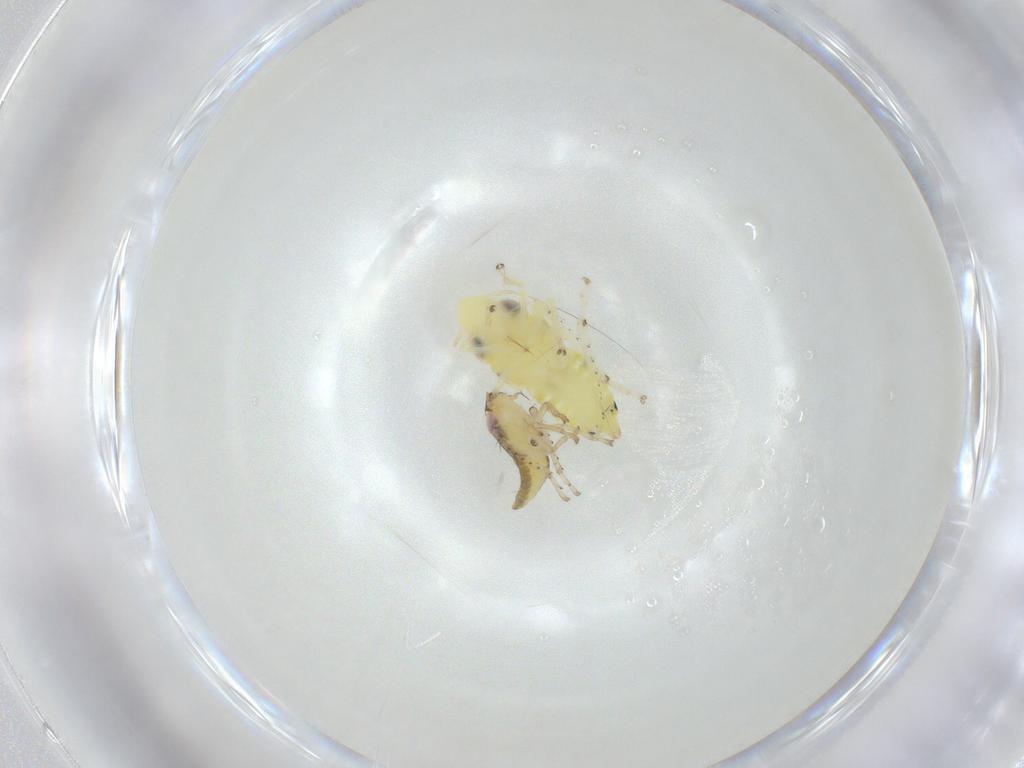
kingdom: Animalia
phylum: Arthropoda
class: Insecta
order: Hemiptera
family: Cicadellidae
